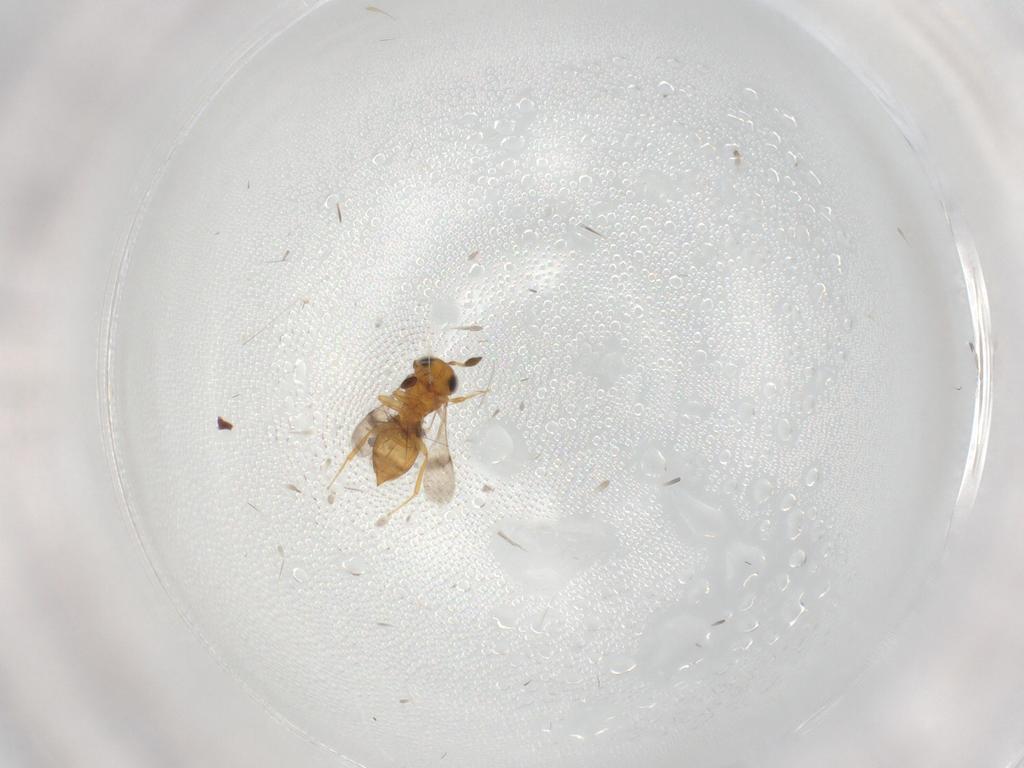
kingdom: Animalia
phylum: Arthropoda
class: Insecta
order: Hymenoptera
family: Scelionidae
